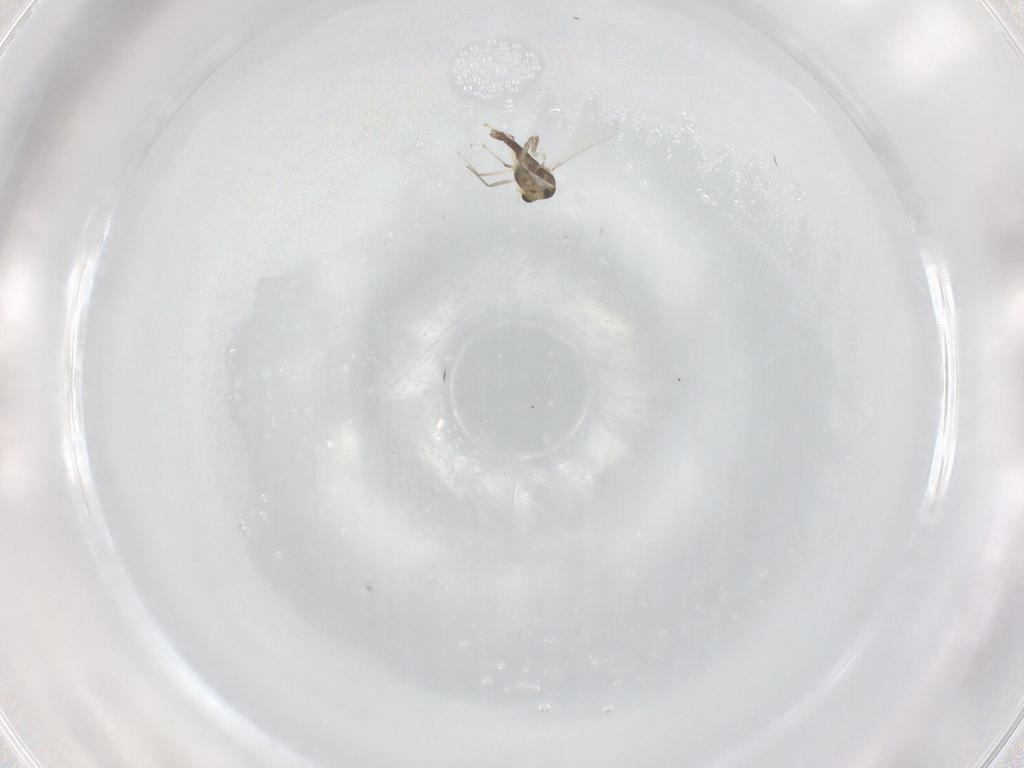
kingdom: Animalia
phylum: Arthropoda
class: Insecta
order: Diptera
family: Chironomidae
